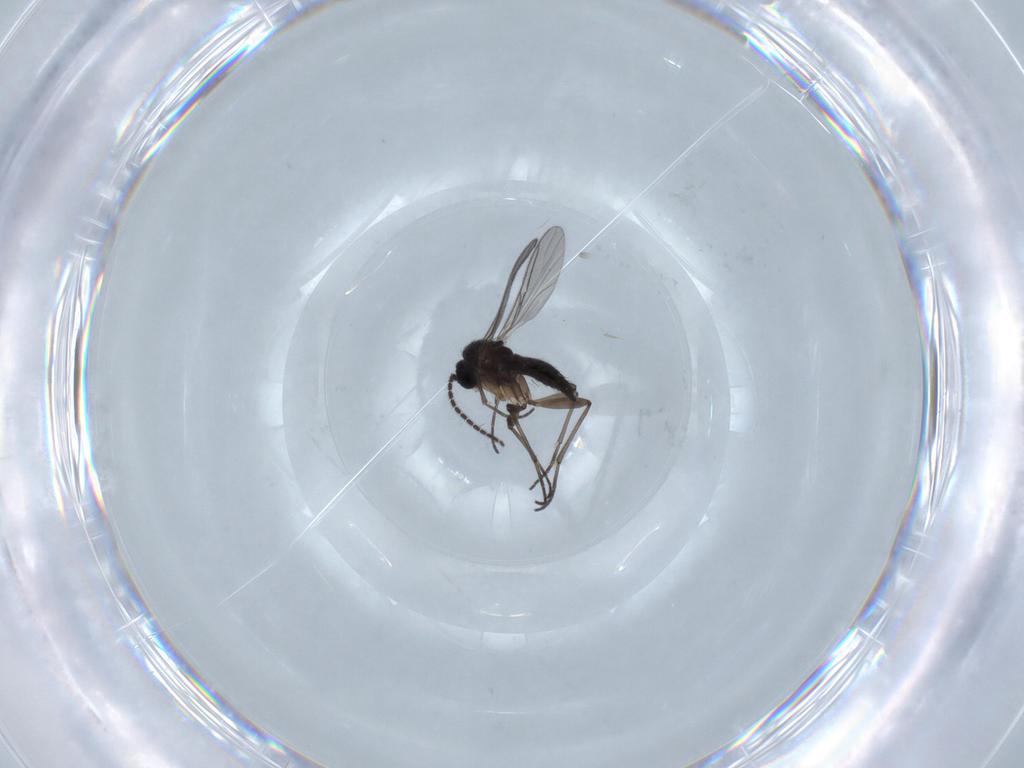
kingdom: Animalia
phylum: Arthropoda
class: Insecta
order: Diptera
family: Sciaridae
